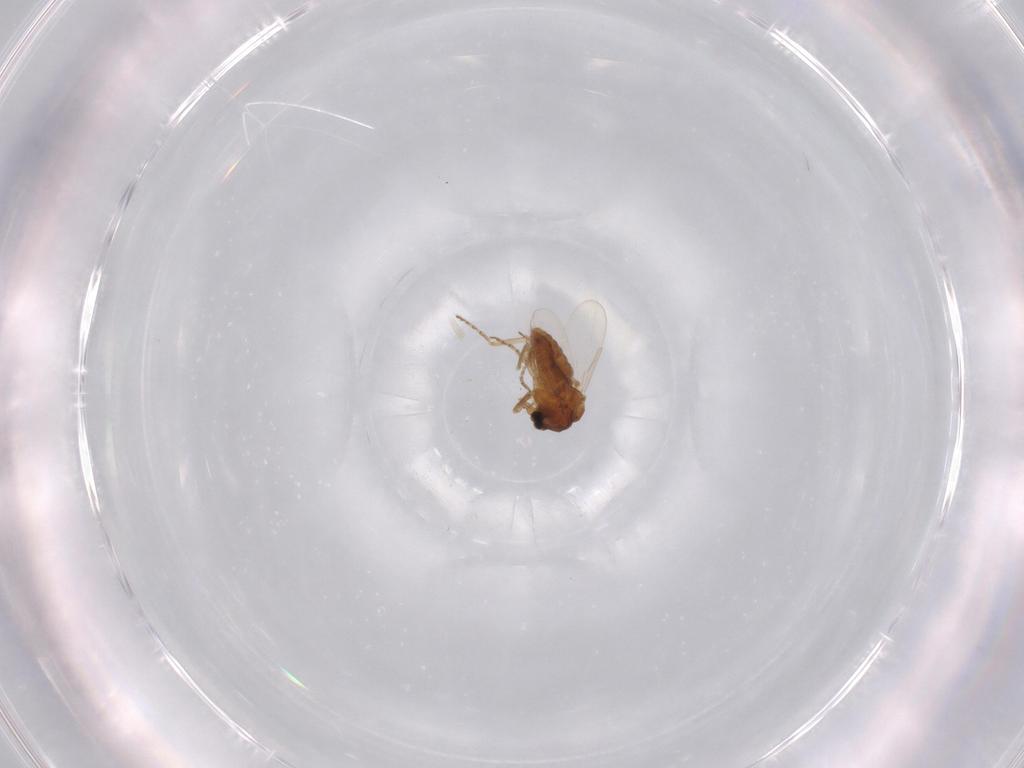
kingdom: Animalia
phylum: Arthropoda
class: Insecta
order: Diptera
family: Ceratopogonidae
